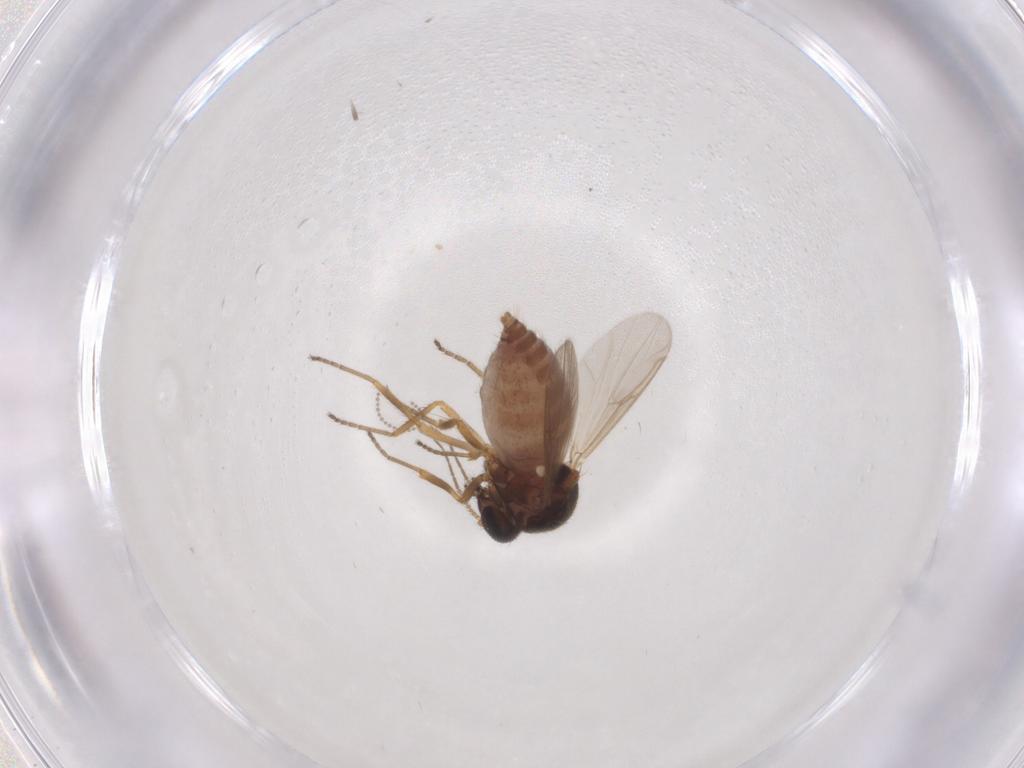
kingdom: Animalia
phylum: Arthropoda
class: Insecta
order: Diptera
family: Ceratopogonidae
